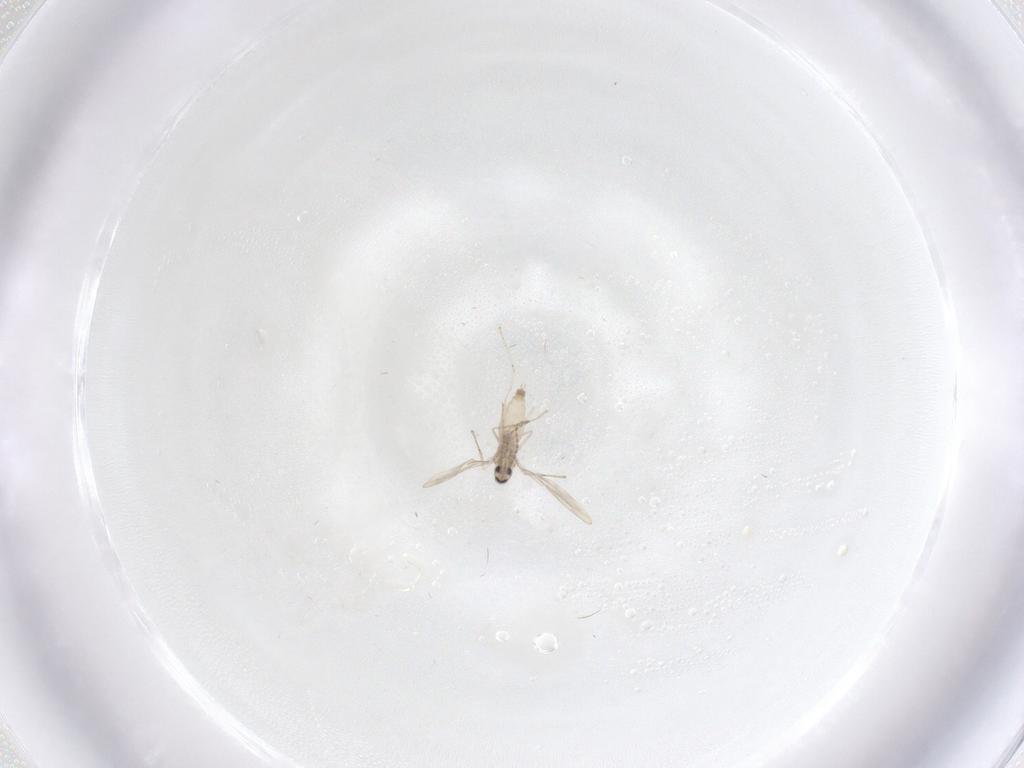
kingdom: Animalia
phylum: Arthropoda
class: Insecta
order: Diptera
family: Cecidomyiidae
